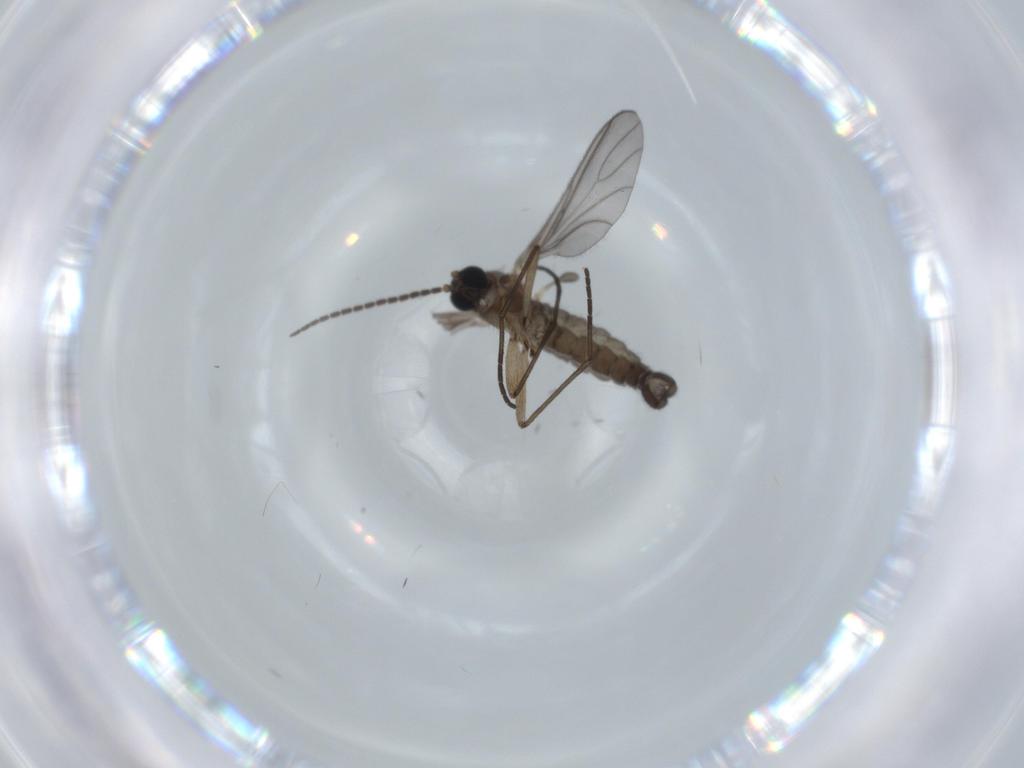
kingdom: Animalia
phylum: Arthropoda
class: Insecta
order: Diptera
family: Sciaridae
